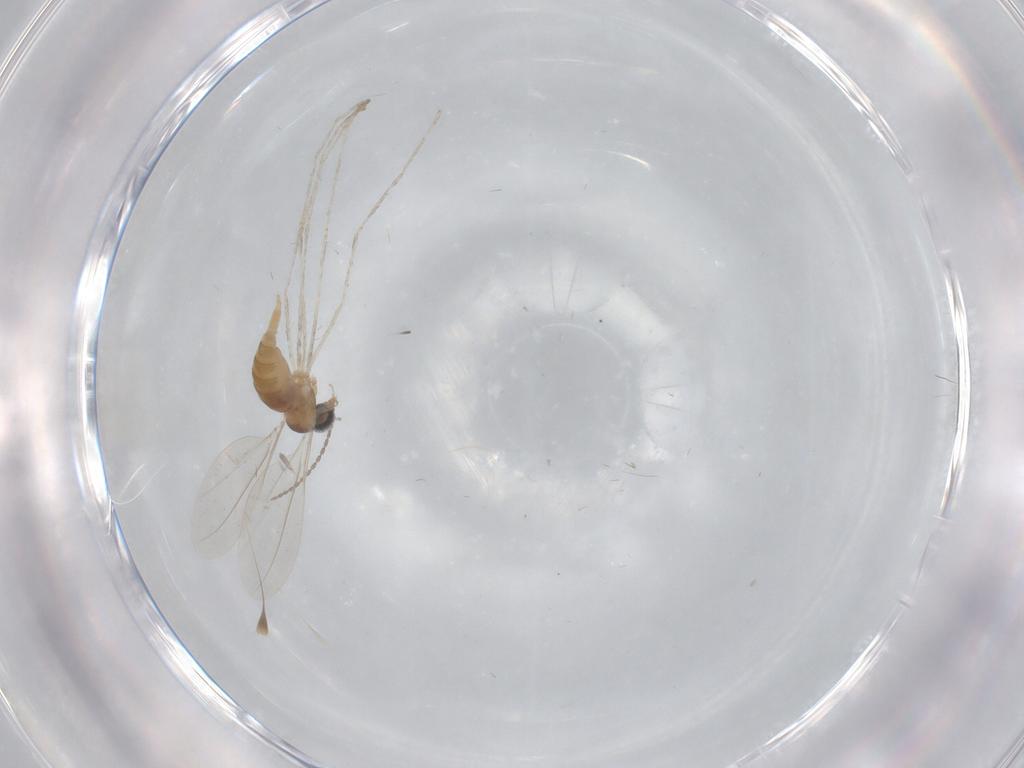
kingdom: Animalia
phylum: Arthropoda
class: Insecta
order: Diptera
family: Cecidomyiidae
